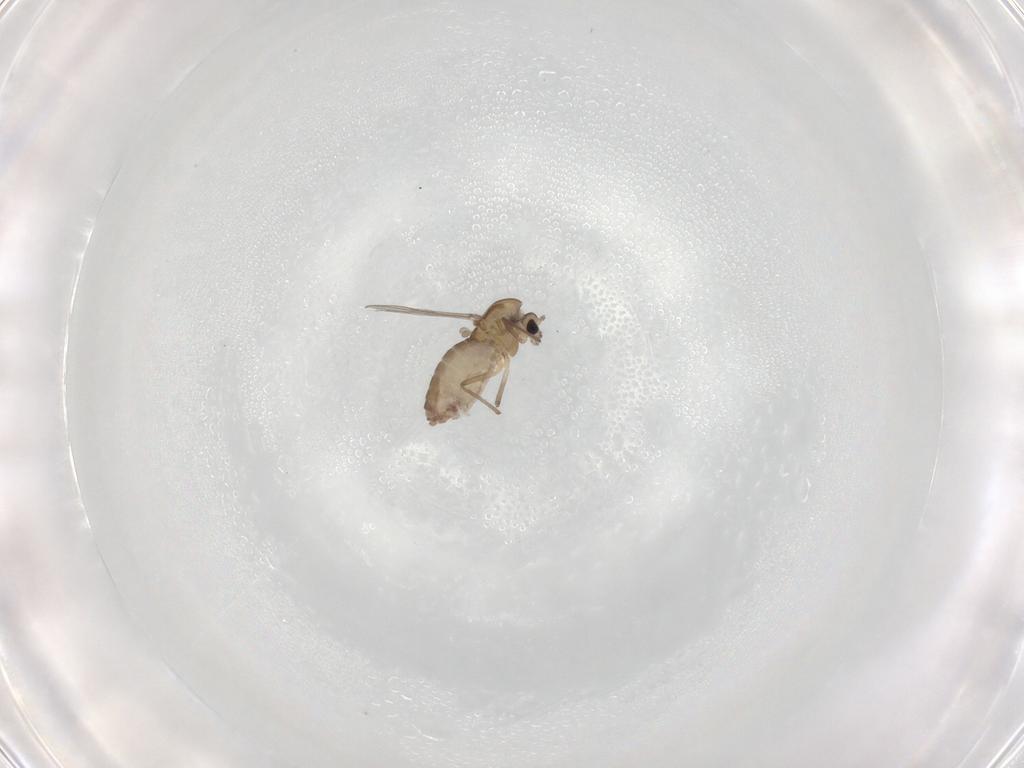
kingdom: Animalia
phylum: Arthropoda
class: Insecta
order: Diptera
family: Chironomidae
